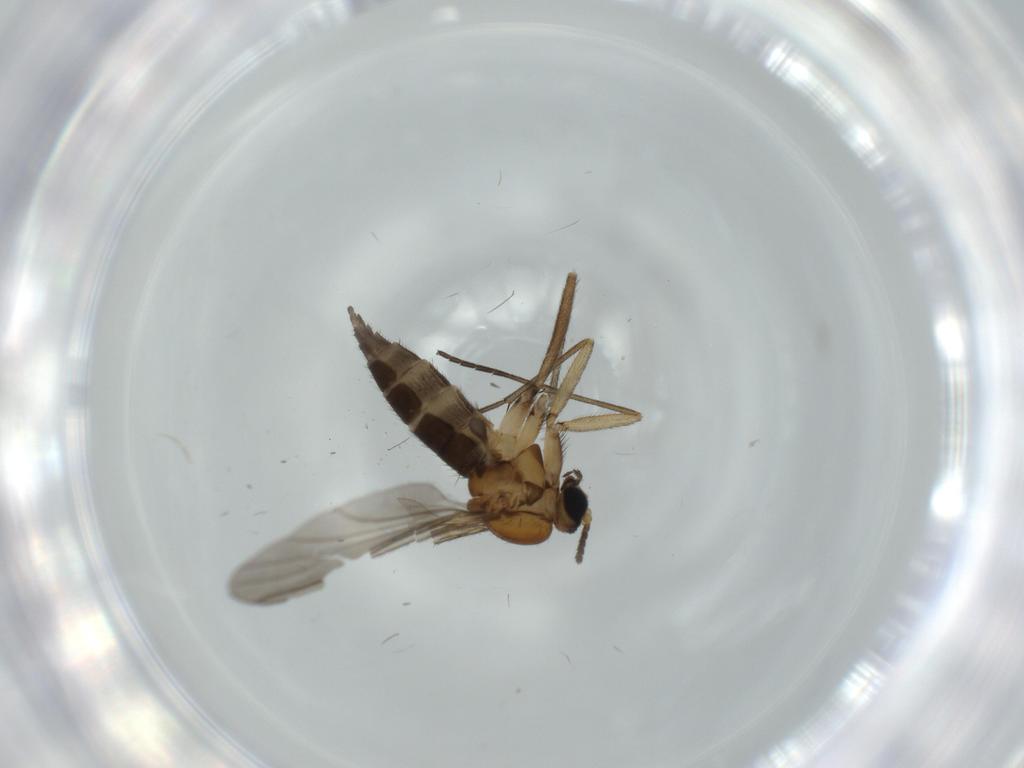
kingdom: Animalia
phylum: Arthropoda
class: Insecta
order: Diptera
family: Sciaridae
